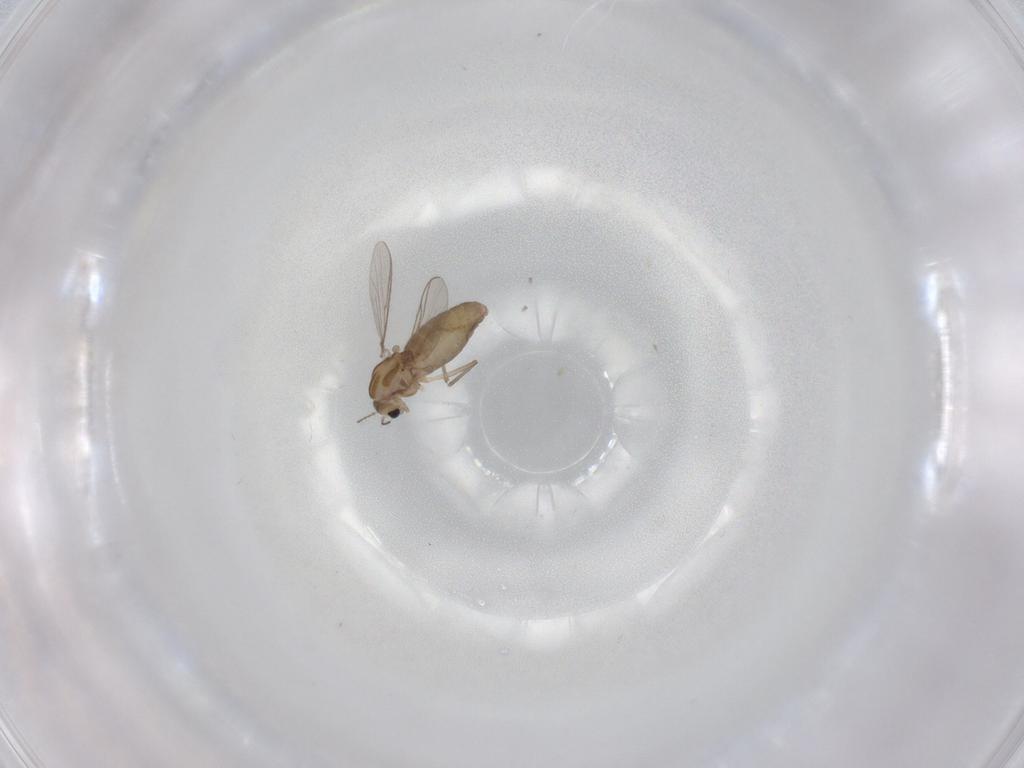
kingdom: Animalia
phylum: Arthropoda
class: Insecta
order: Diptera
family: Chironomidae
